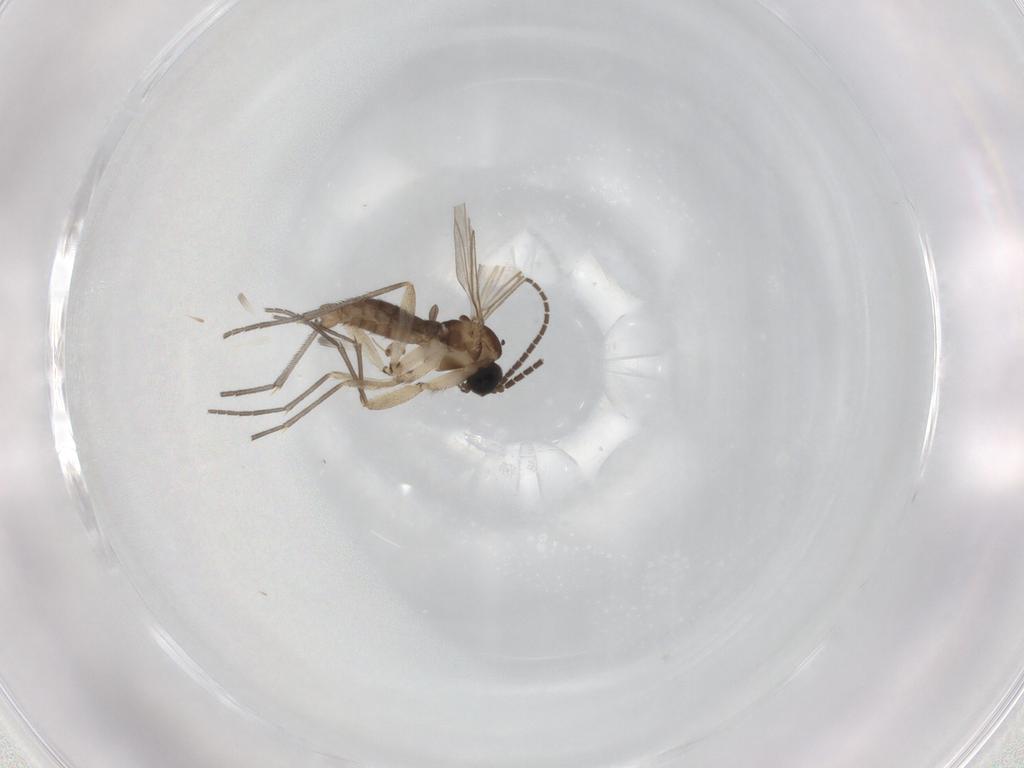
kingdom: Animalia
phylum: Arthropoda
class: Insecta
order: Diptera
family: Sciaridae
